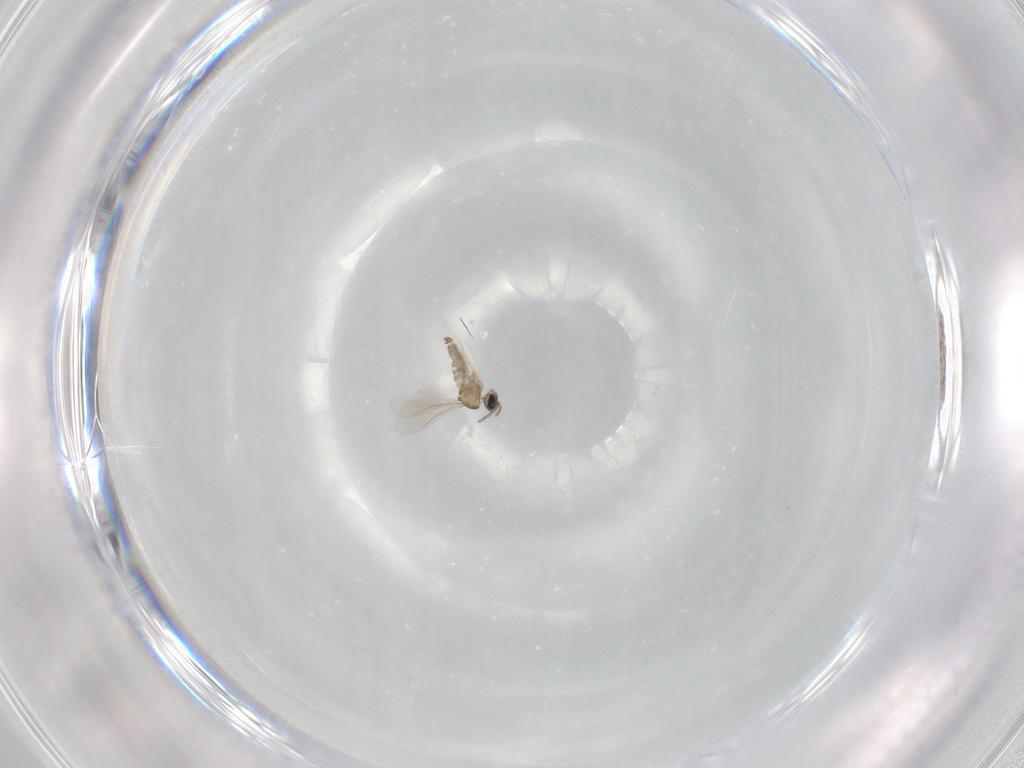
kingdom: Animalia
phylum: Arthropoda
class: Insecta
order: Diptera
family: Cecidomyiidae
